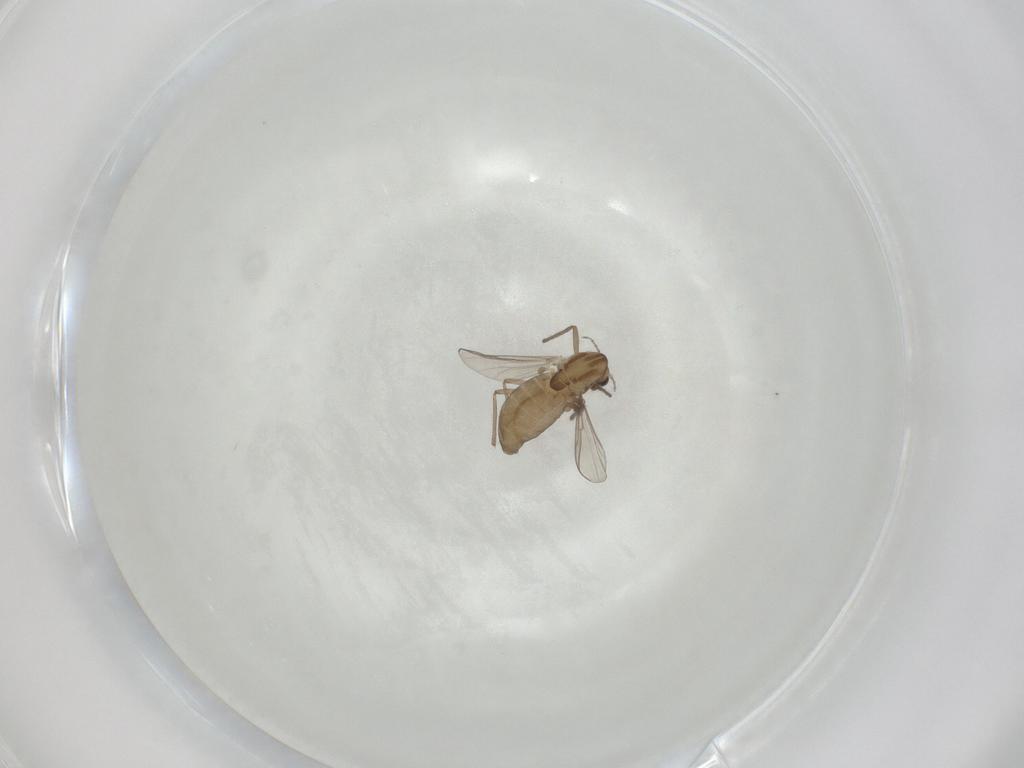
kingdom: Animalia
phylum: Arthropoda
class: Insecta
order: Diptera
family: Chironomidae
